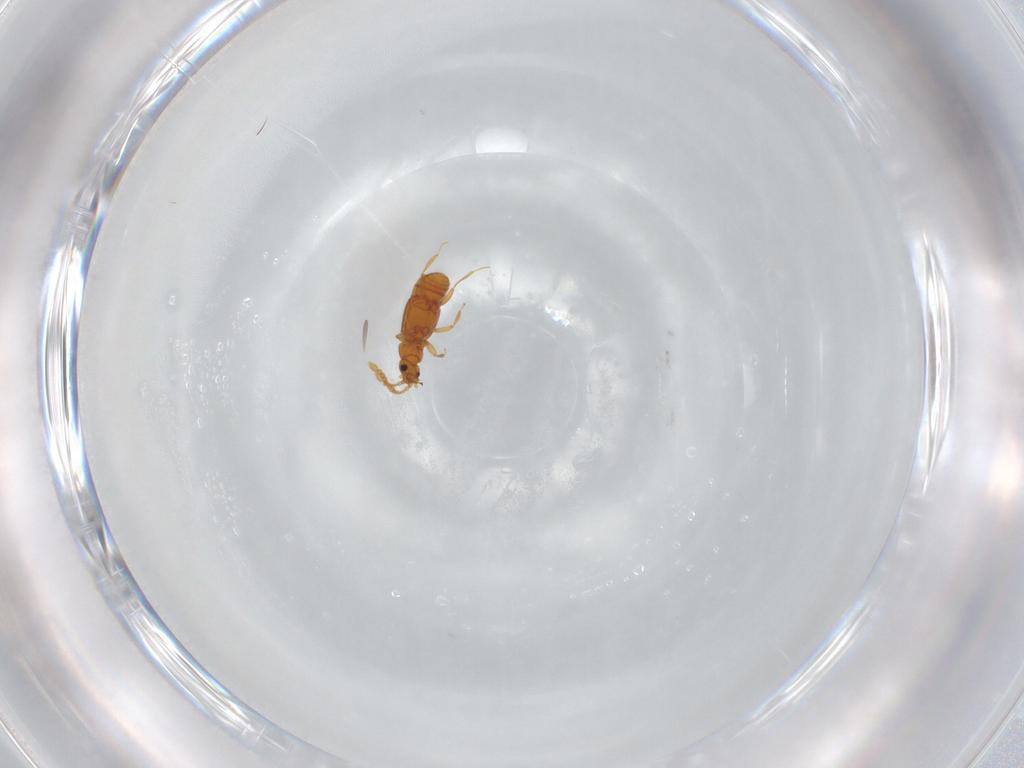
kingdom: Animalia
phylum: Arthropoda
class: Insecta
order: Coleoptera
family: Staphylinidae
